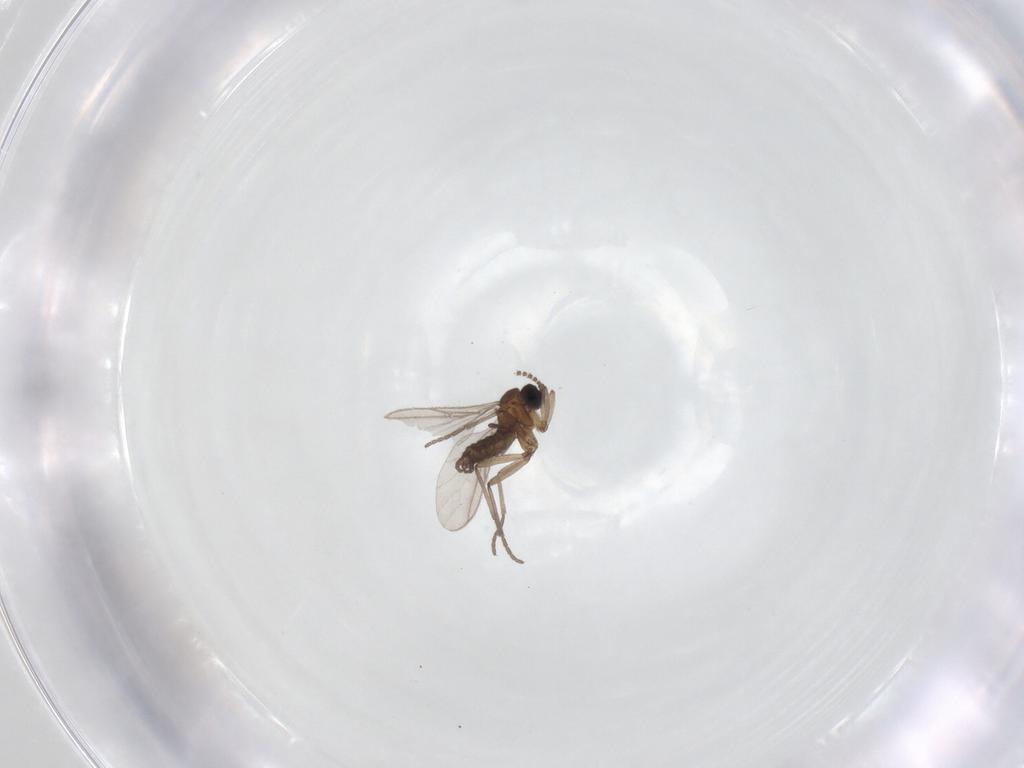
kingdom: Animalia
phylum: Arthropoda
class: Insecta
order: Diptera
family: Sciaridae
